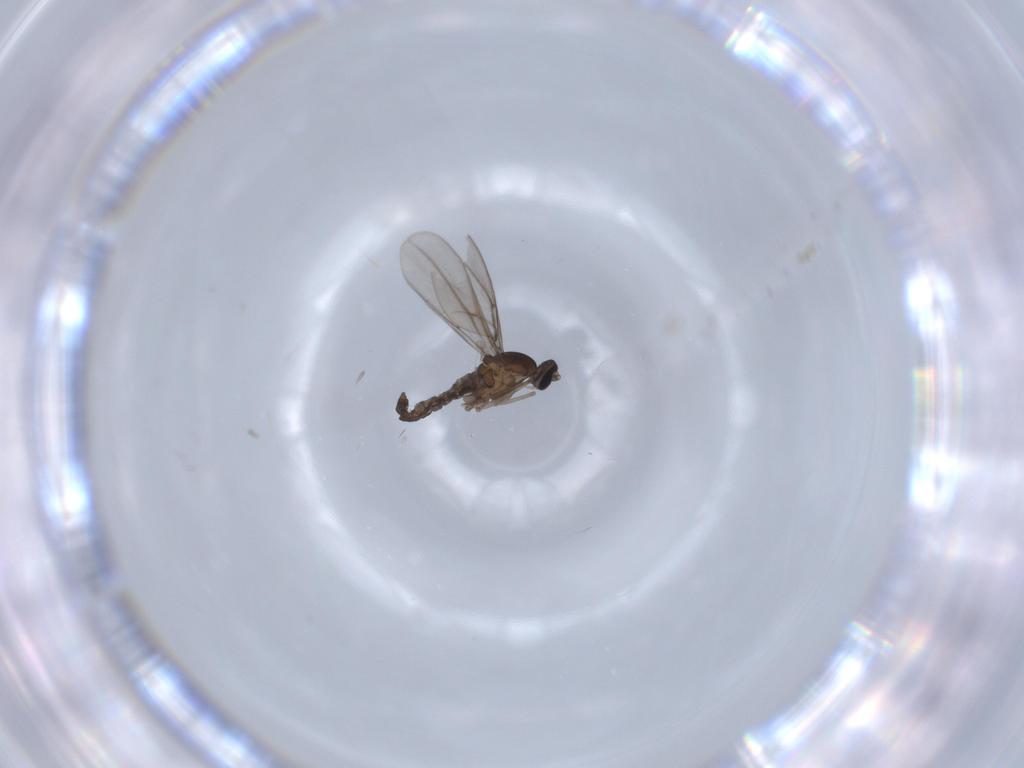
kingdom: Animalia
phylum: Arthropoda
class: Insecta
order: Diptera
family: Cecidomyiidae
